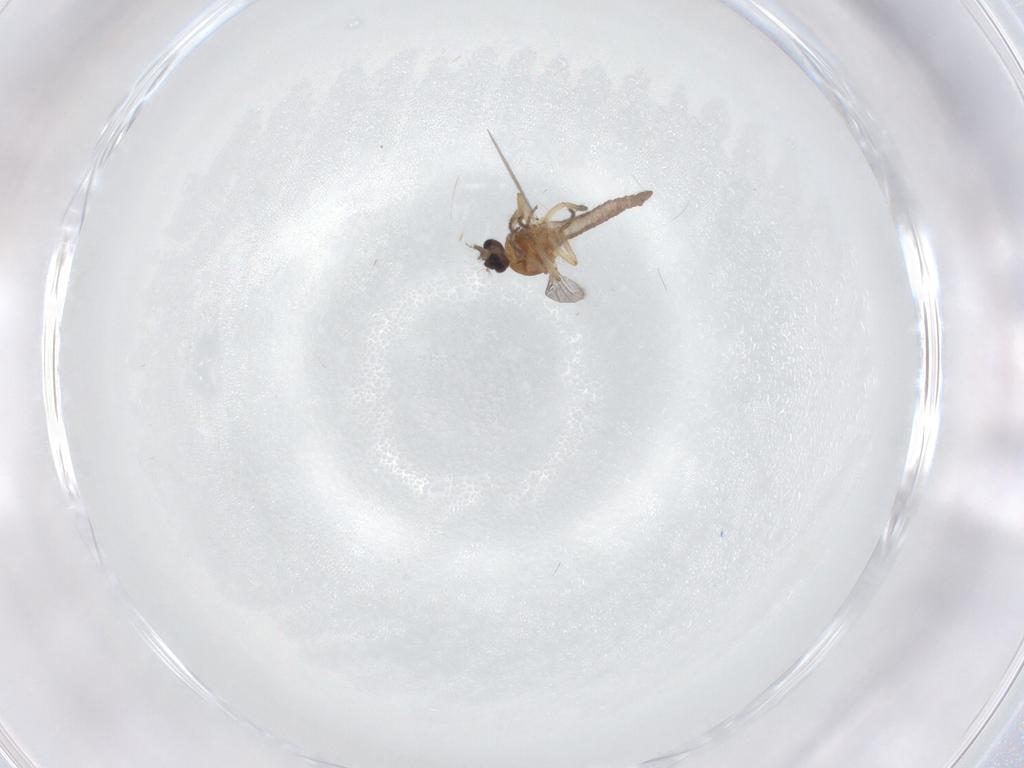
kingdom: Animalia
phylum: Arthropoda
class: Insecta
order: Diptera
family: Ceratopogonidae
